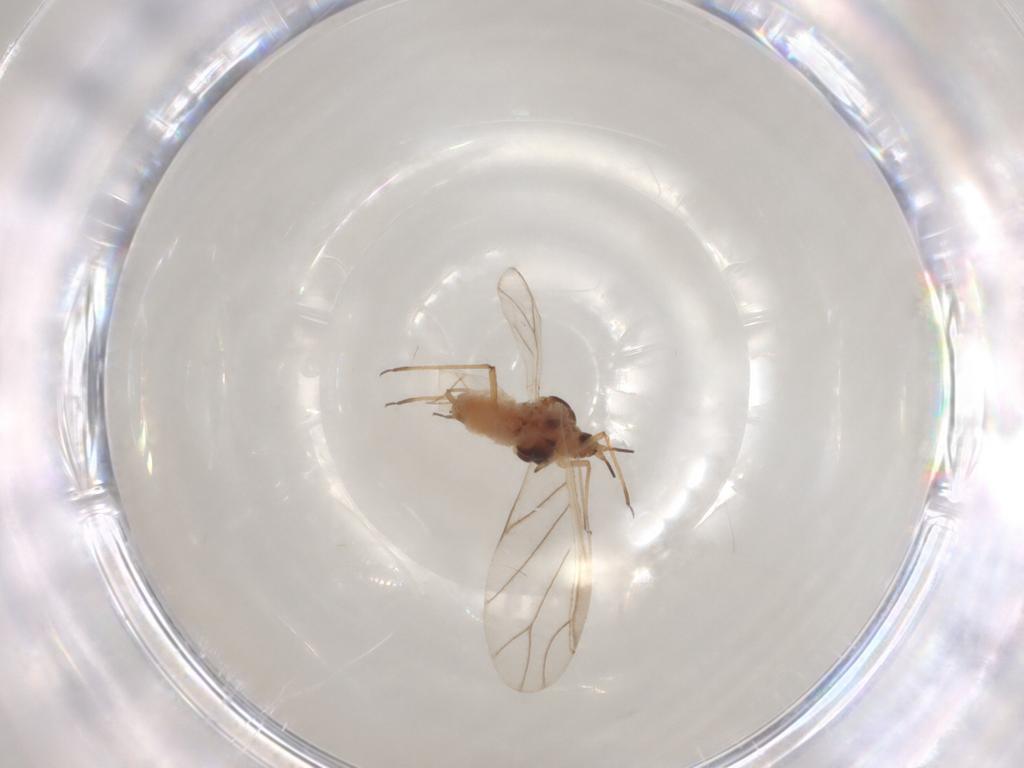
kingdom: Animalia
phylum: Arthropoda
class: Insecta
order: Hemiptera
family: Aphididae
